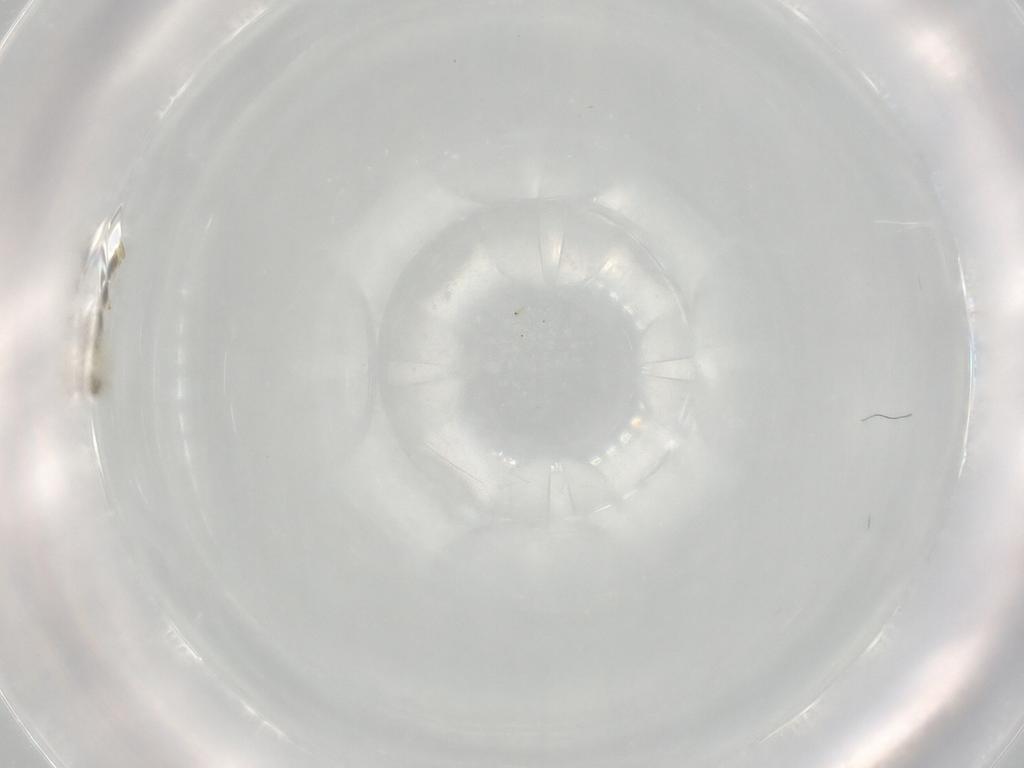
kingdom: Animalia
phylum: Arthropoda
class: Insecta
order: Diptera
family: Chironomidae
